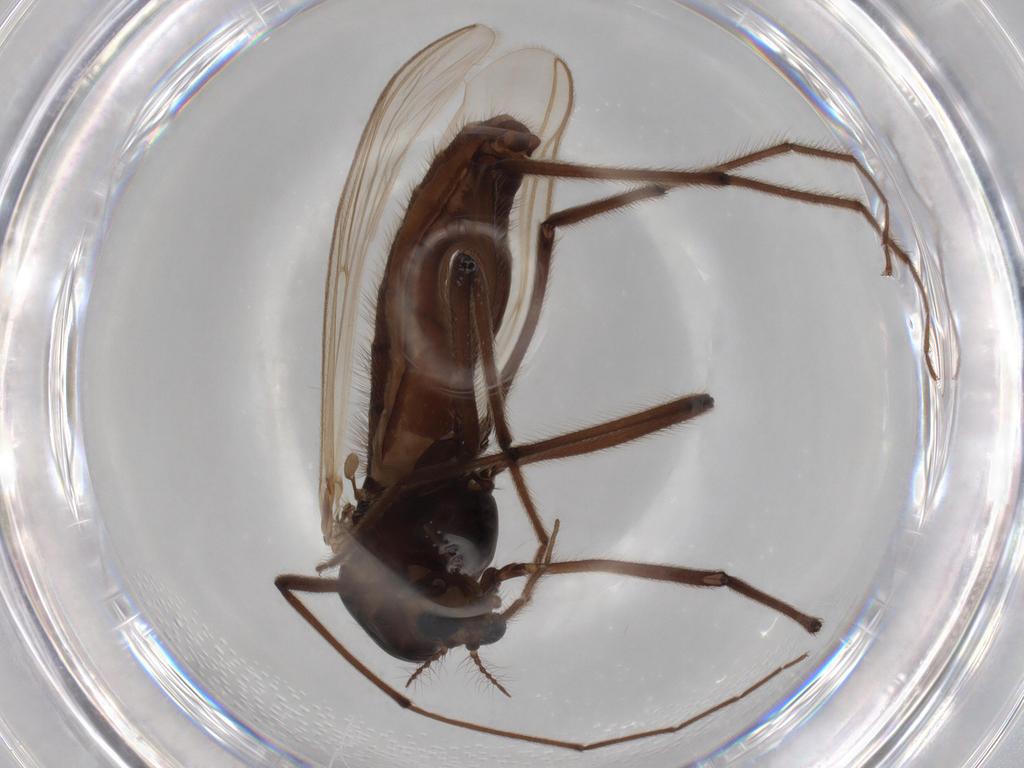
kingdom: Animalia
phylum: Arthropoda
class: Insecta
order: Diptera
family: Chironomidae
